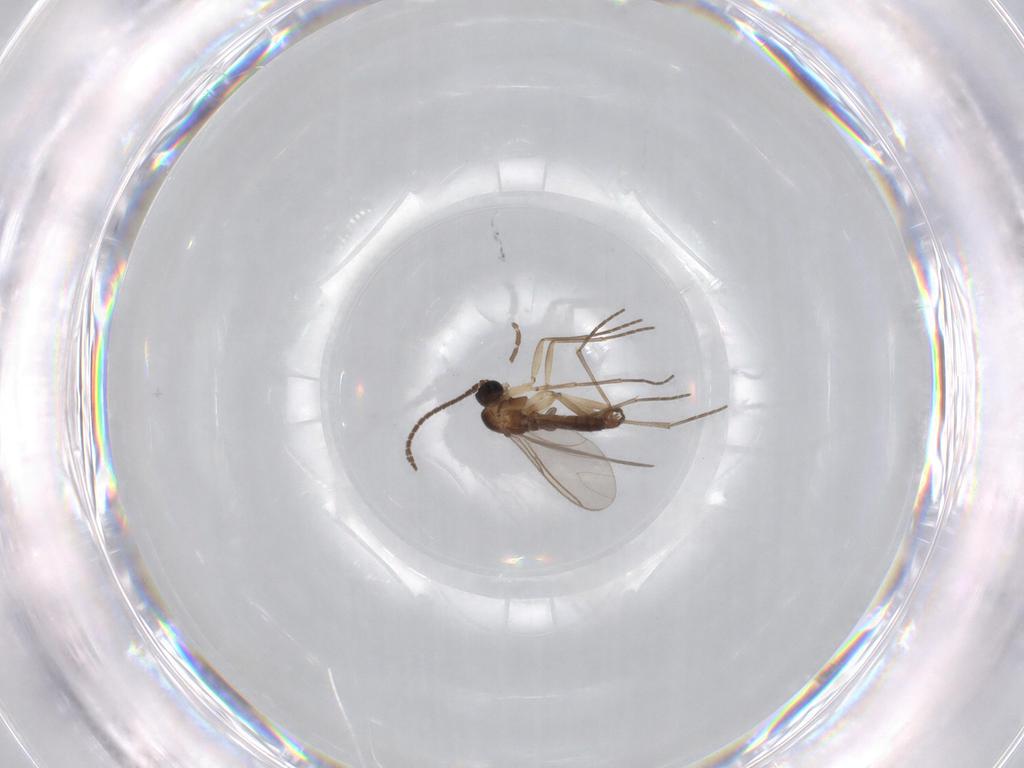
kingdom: Animalia
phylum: Arthropoda
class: Insecta
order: Diptera
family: Sciaridae
